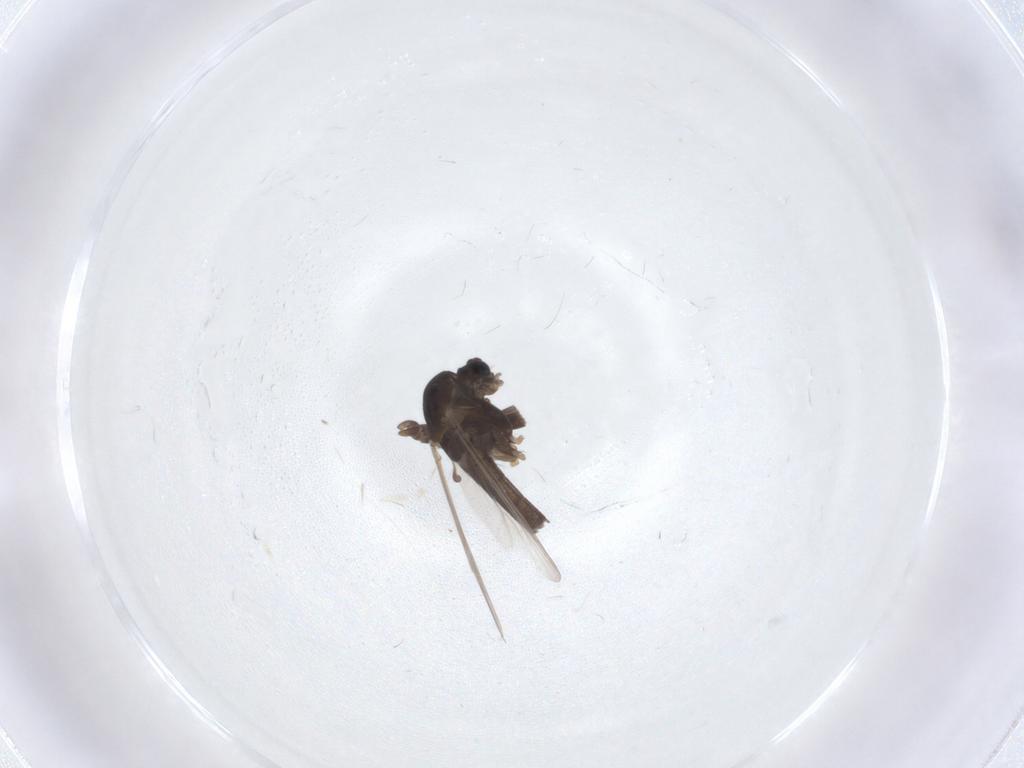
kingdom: Animalia
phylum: Arthropoda
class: Insecta
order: Diptera
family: Chironomidae
